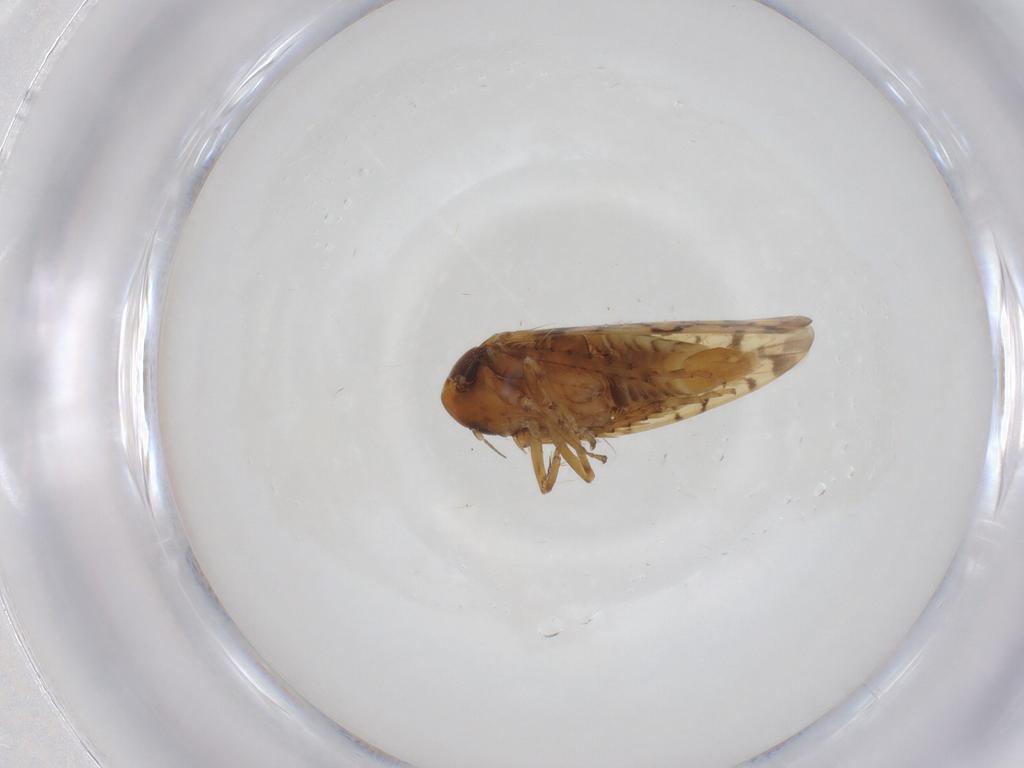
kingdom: Animalia
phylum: Arthropoda
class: Insecta
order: Hemiptera
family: Cicadellidae
